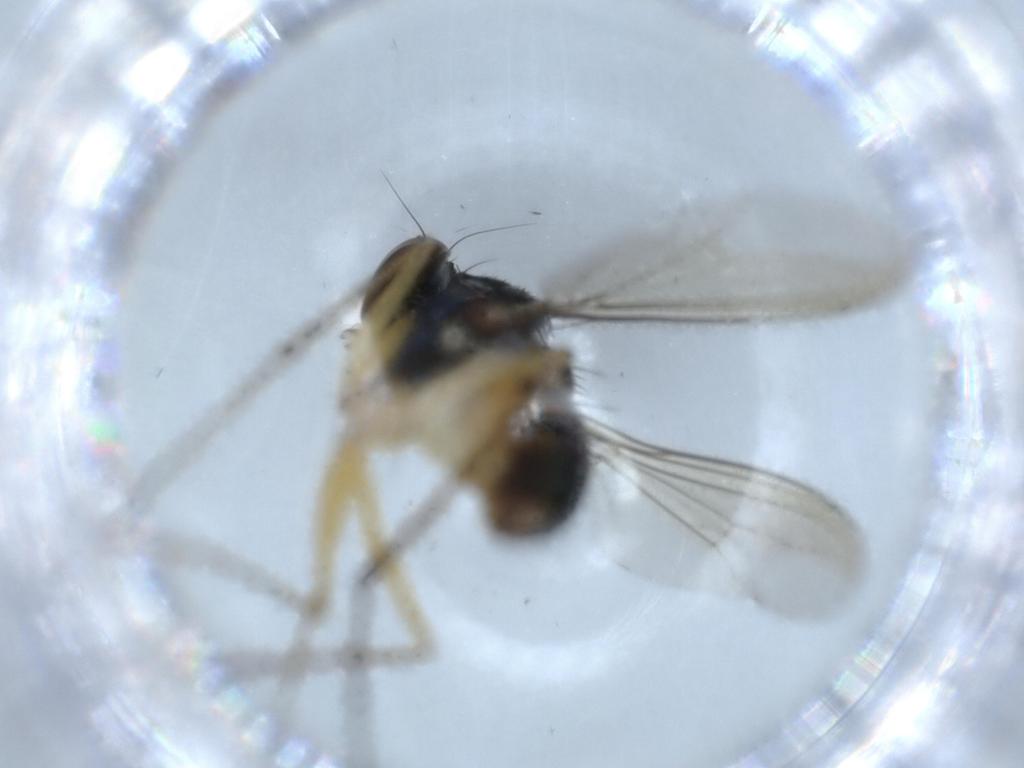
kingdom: Animalia
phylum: Arthropoda
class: Insecta
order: Diptera
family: Dolichopodidae
